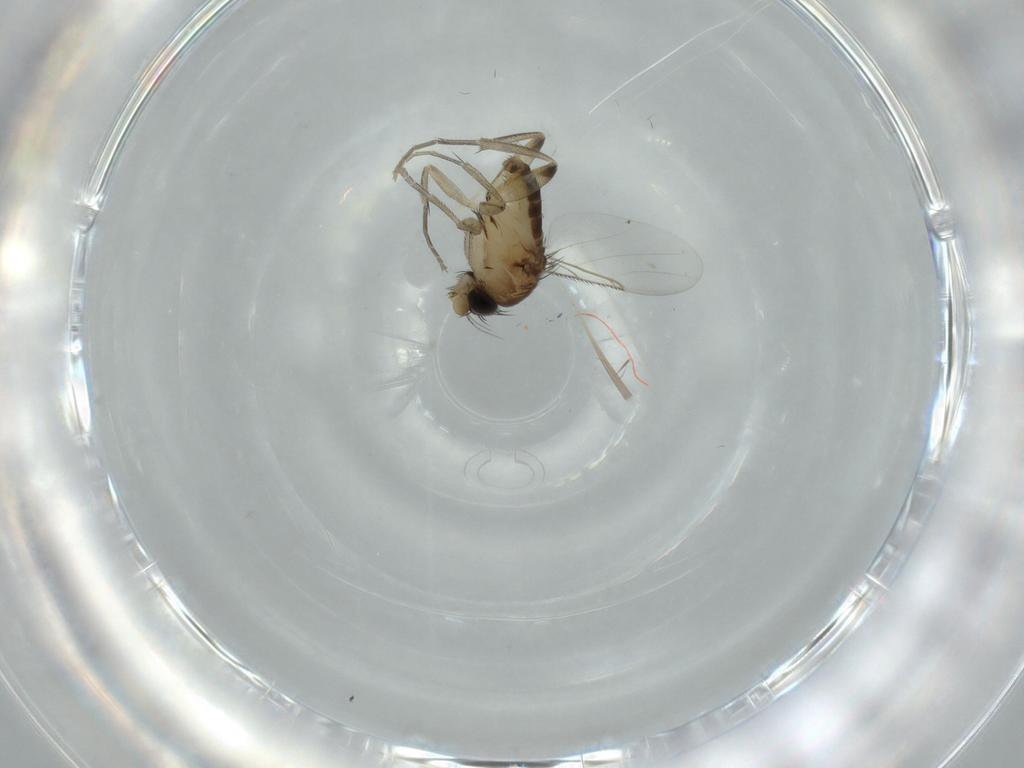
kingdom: Animalia
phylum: Arthropoda
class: Insecta
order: Diptera
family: Phoridae
